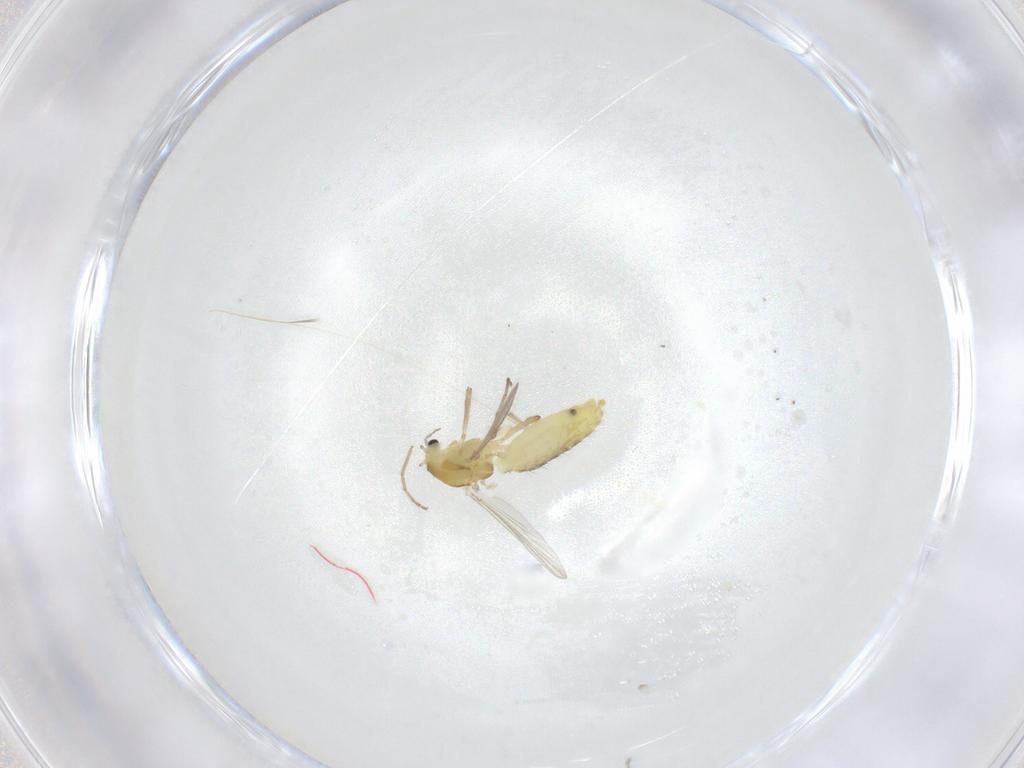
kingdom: Animalia
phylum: Arthropoda
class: Insecta
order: Diptera
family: Chironomidae
